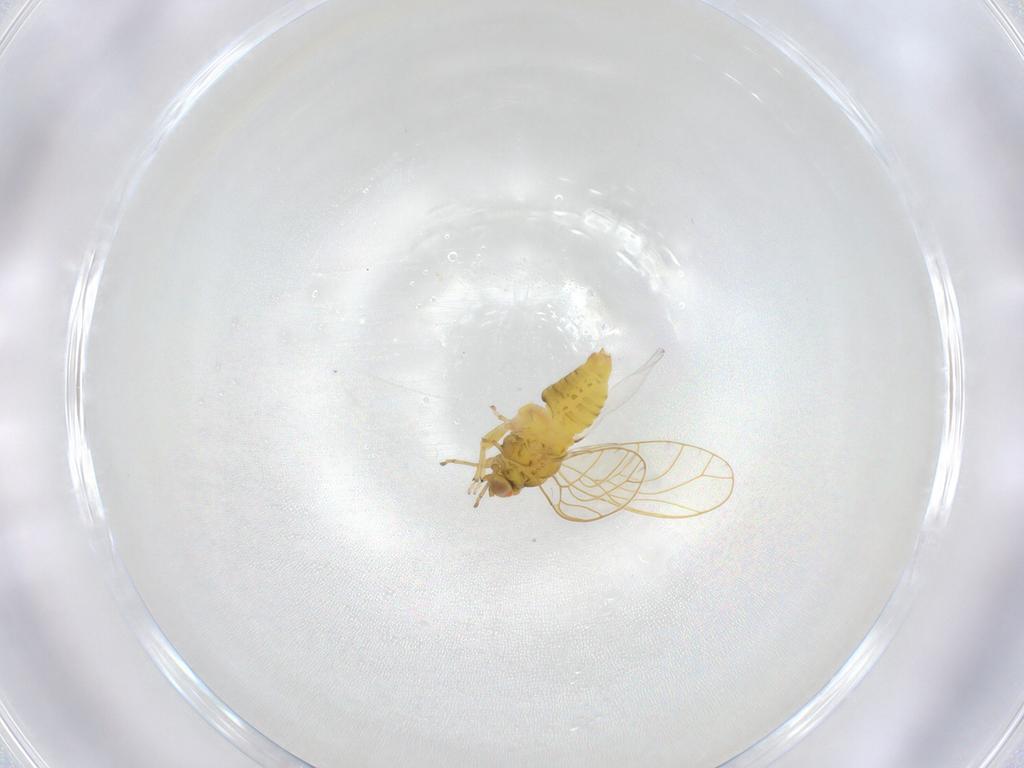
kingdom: Animalia
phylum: Arthropoda
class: Insecta
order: Hemiptera
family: Psylloidea_incertae_sedis
